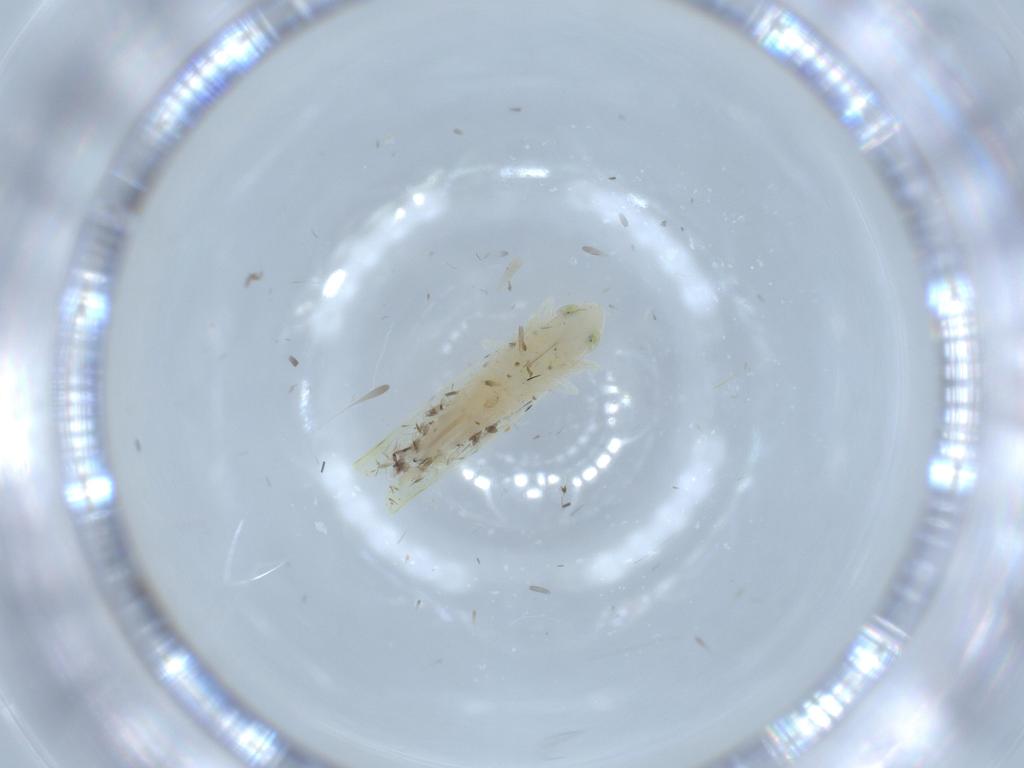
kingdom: Animalia
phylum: Arthropoda
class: Insecta
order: Hemiptera
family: Cicadellidae
